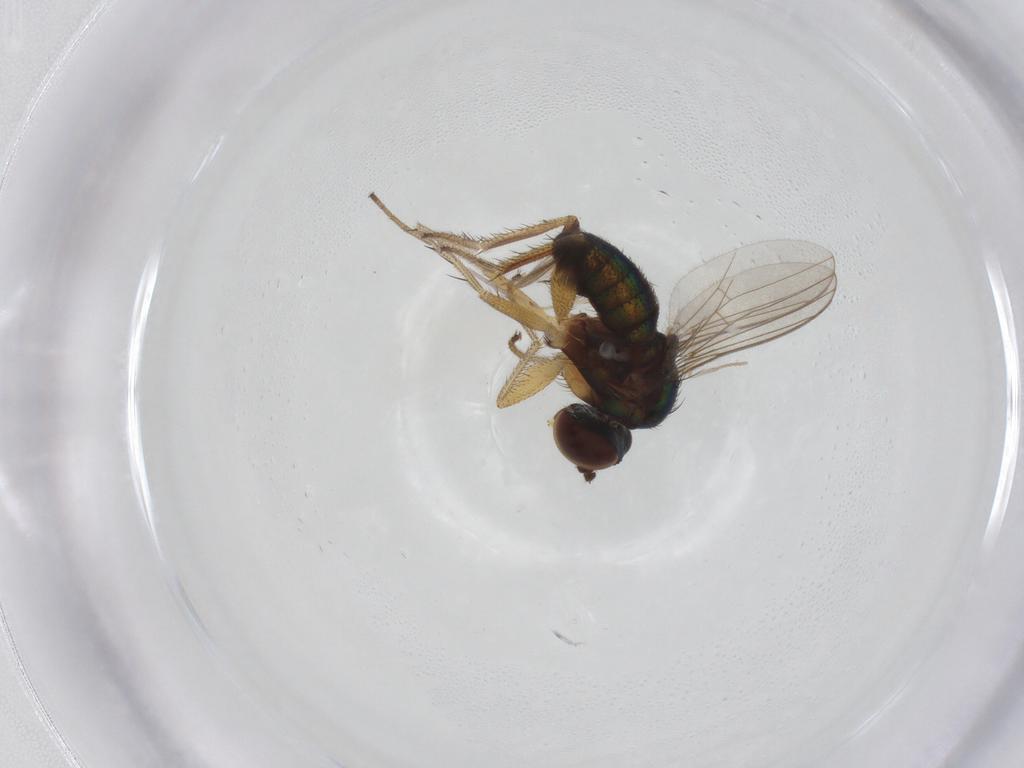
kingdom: Animalia
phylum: Arthropoda
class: Insecta
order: Diptera
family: Ceratopogonidae
